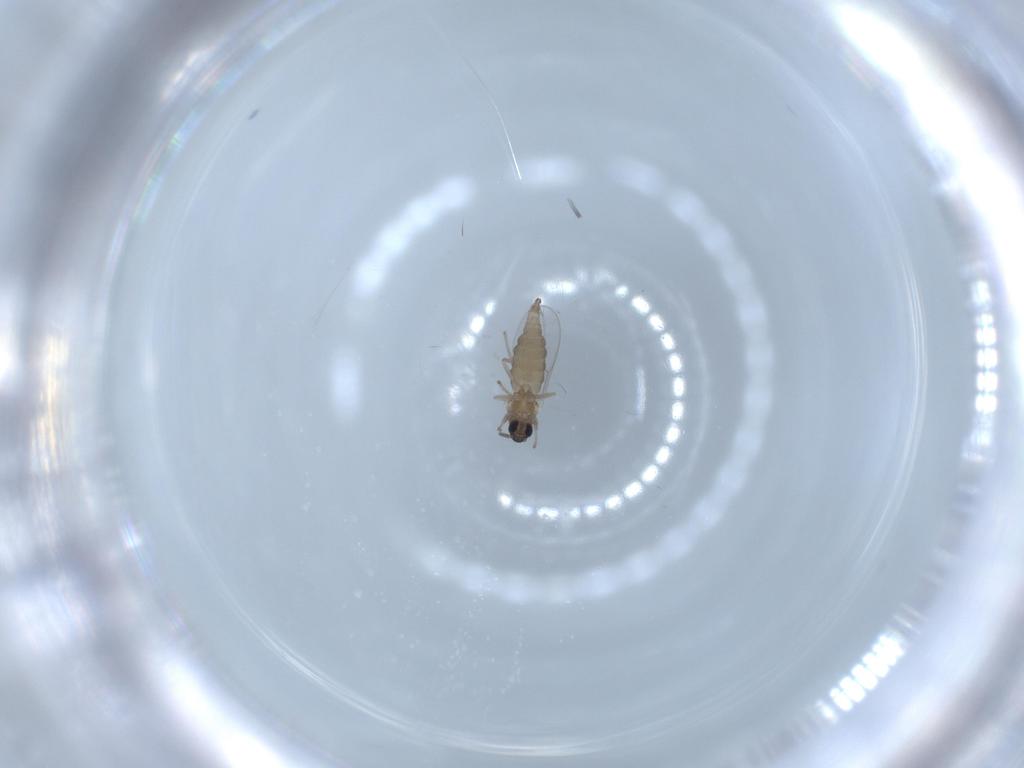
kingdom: Animalia
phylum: Arthropoda
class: Insecta
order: Diptera
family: Cecidomyiidae
